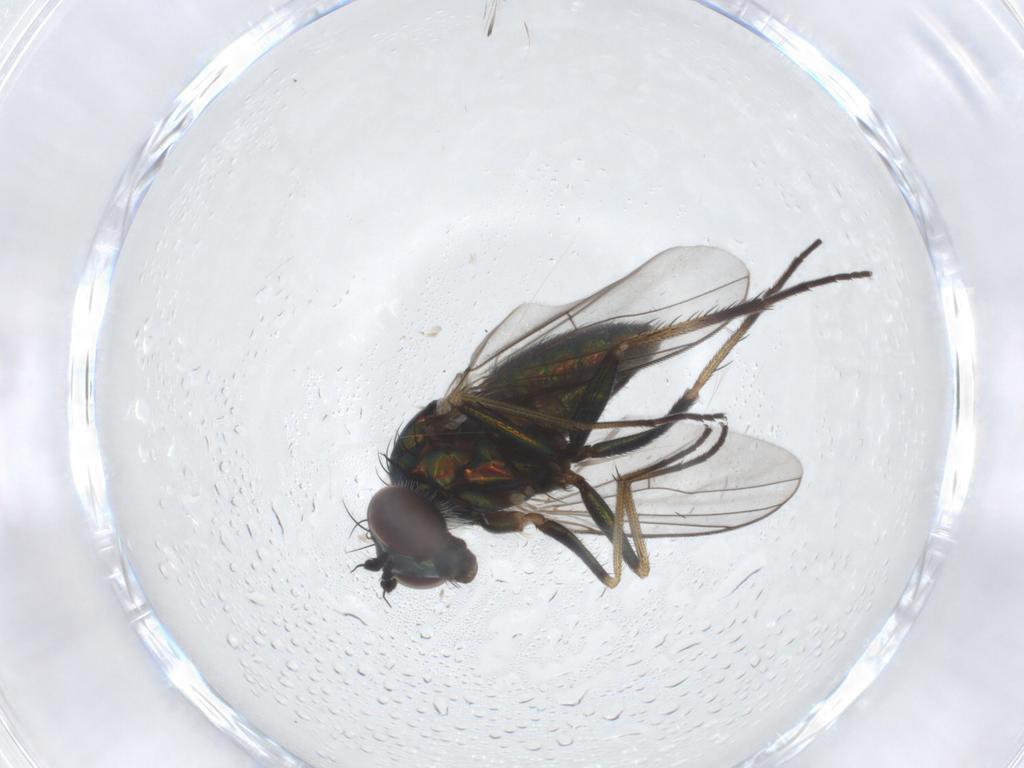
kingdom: Animalia
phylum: Arthropoda
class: Insecta
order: Diptera
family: Dolichopodidae
